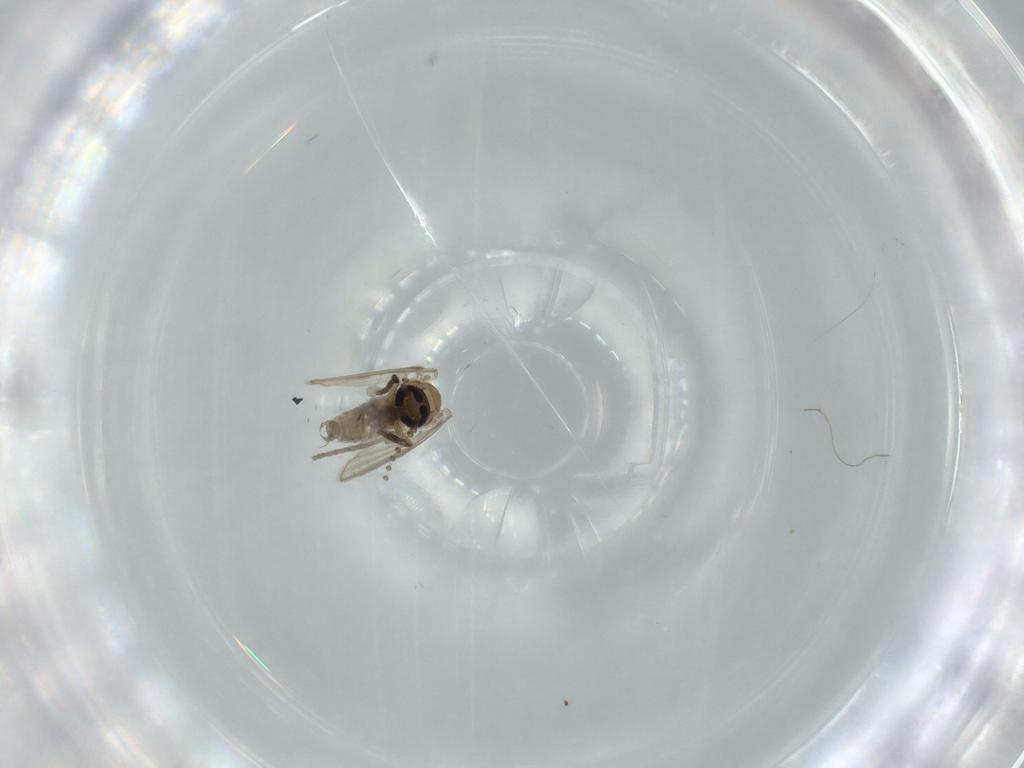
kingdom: Animalia
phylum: Arthropoda
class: Insecta
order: Diptera
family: Psychodidae
